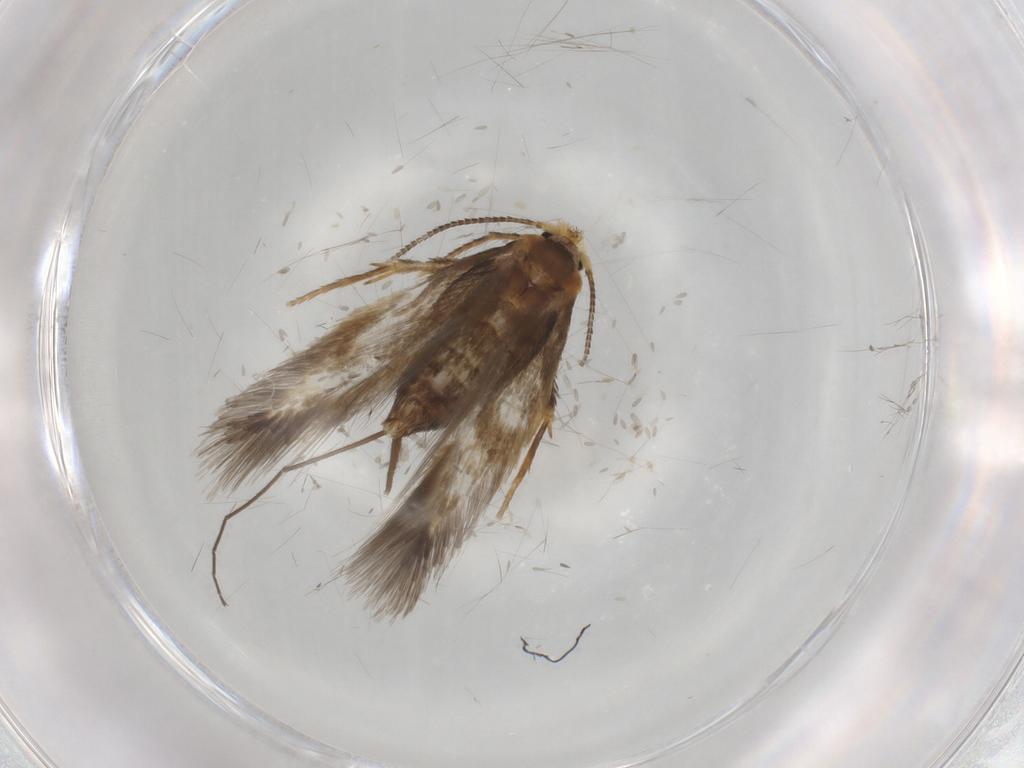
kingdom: Animalia
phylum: Arthropoda
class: Insecta
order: Lepidoptera
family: Nepticulidae
